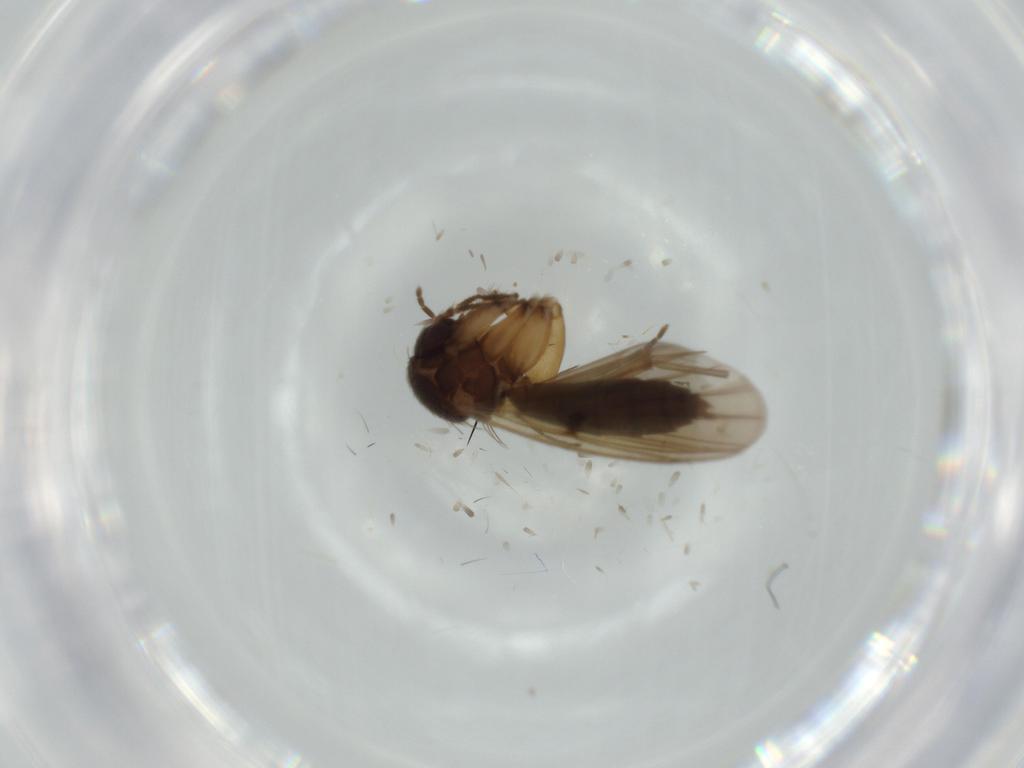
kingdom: Animalia
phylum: Arthropoda
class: Insecta
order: Diptera
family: Muscidae
